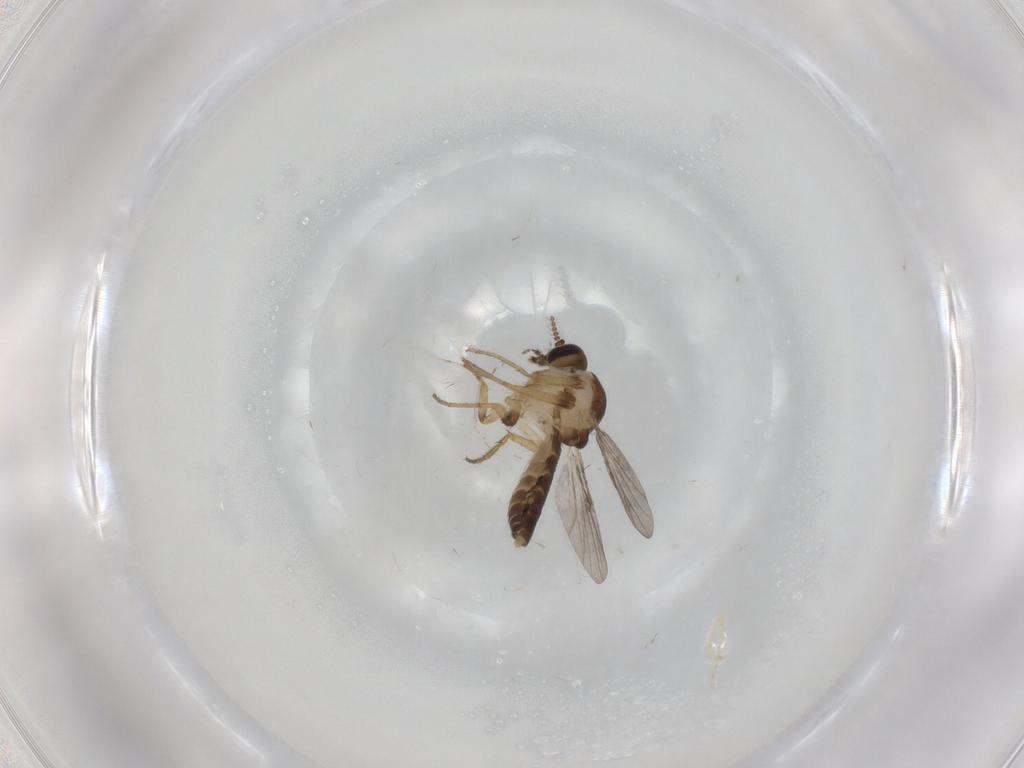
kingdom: Animalia
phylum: Arthropoda
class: Insecta
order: Diptera
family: Ceratopogonidae
